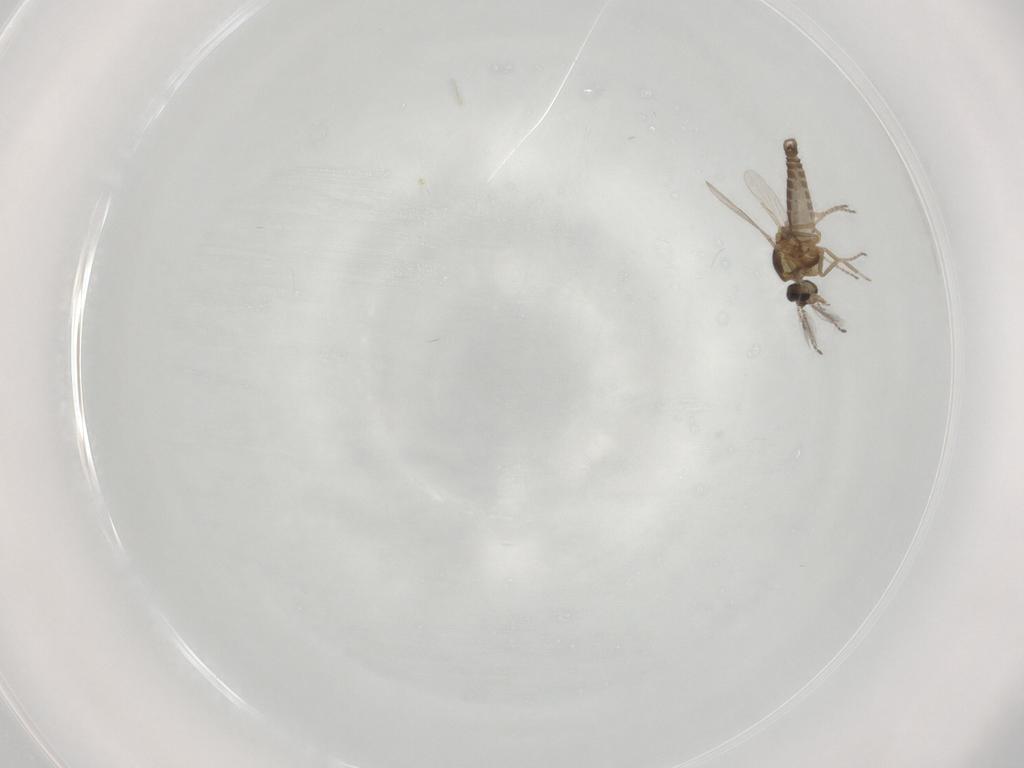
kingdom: Animalia
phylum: Arthropoda
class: Insecta
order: Diptera
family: Ceratopogonidae
